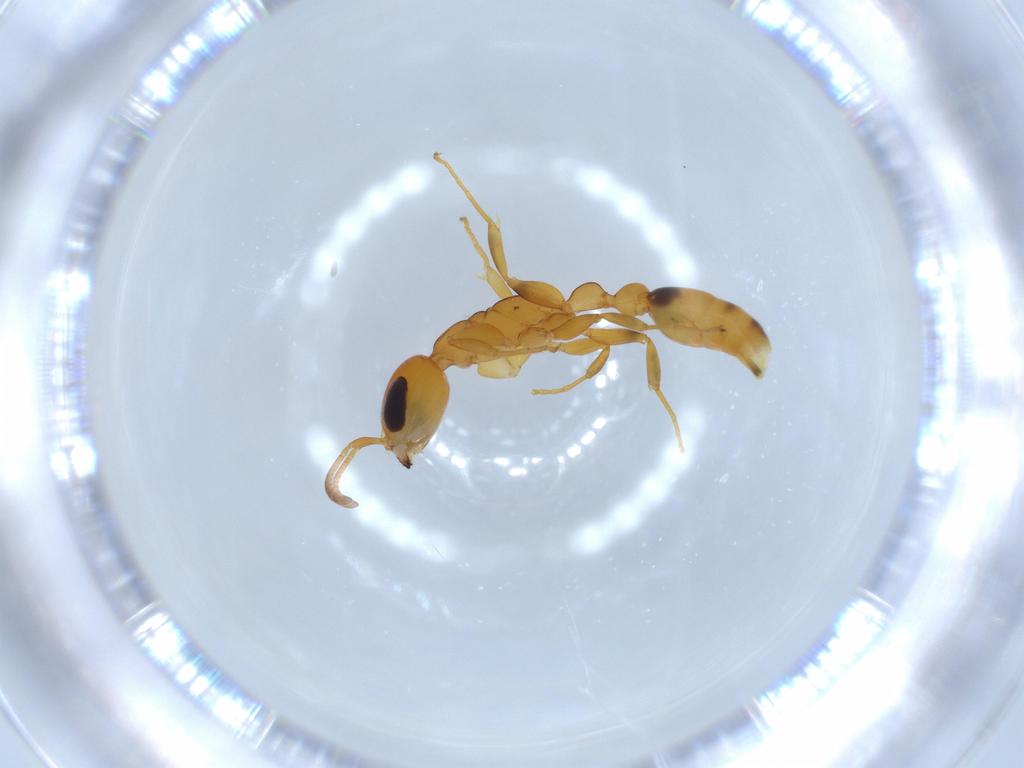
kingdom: Animalia
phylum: Arthropoda
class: Insecta
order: Hymenoptera
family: Formicidae
